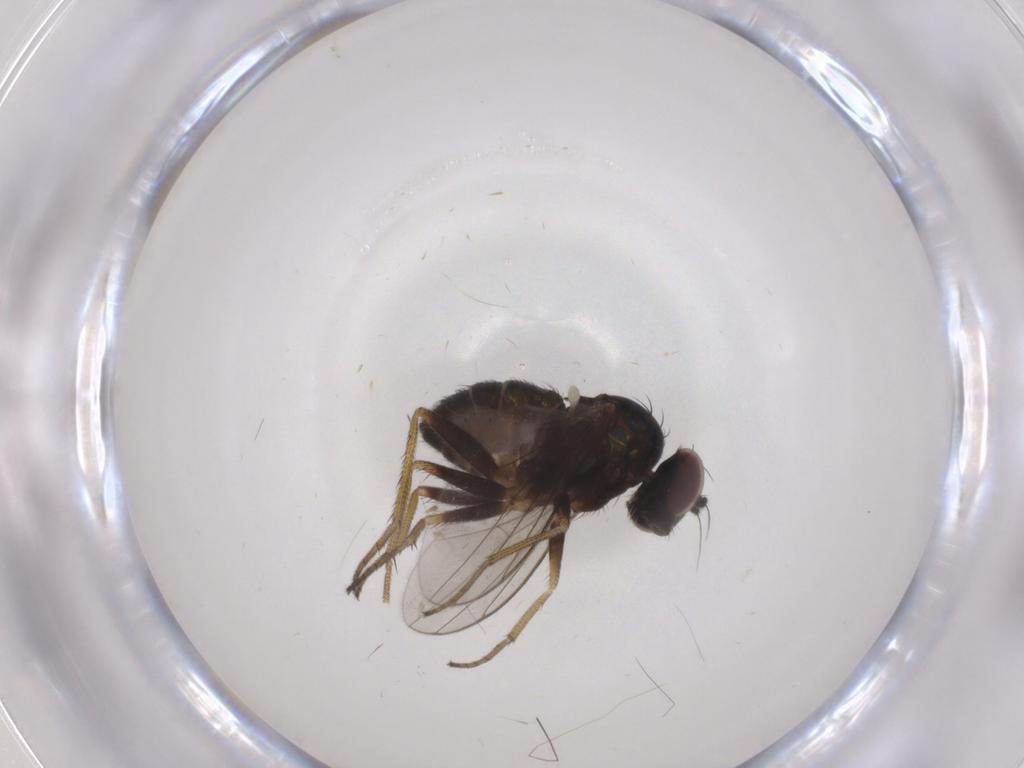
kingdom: Animalia
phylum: Arthropoda
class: Insecta
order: Diptera
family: Dolichopodidae
